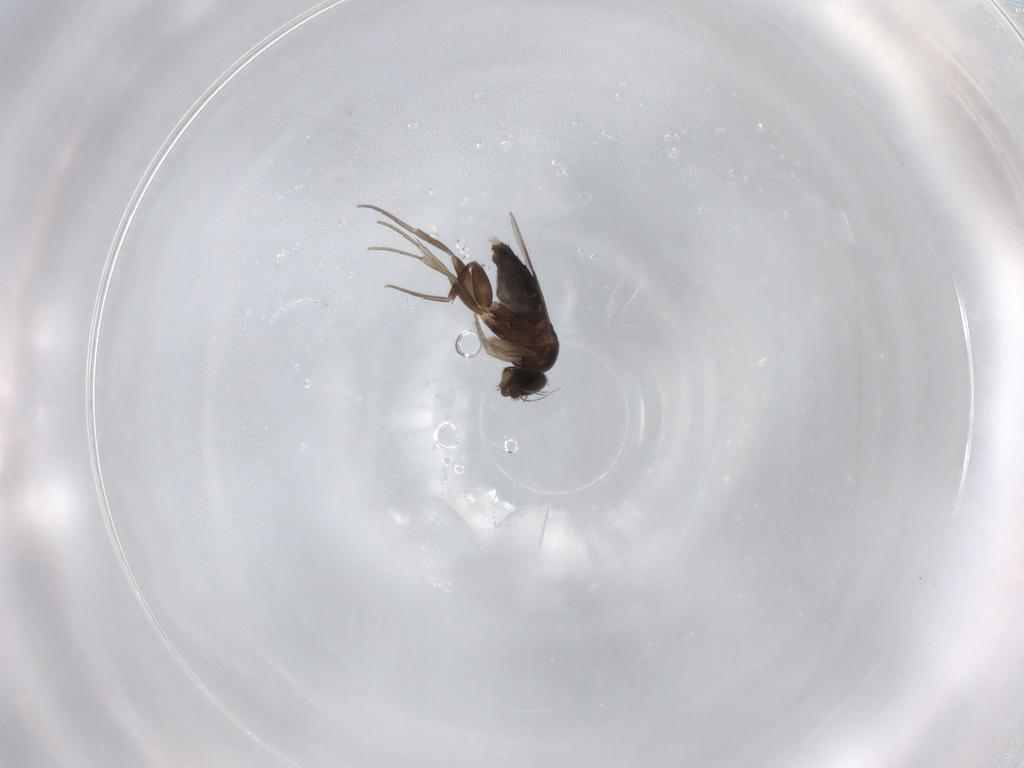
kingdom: Animalia
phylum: Arthropoda
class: Insecta
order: Diptera
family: Phoridae
